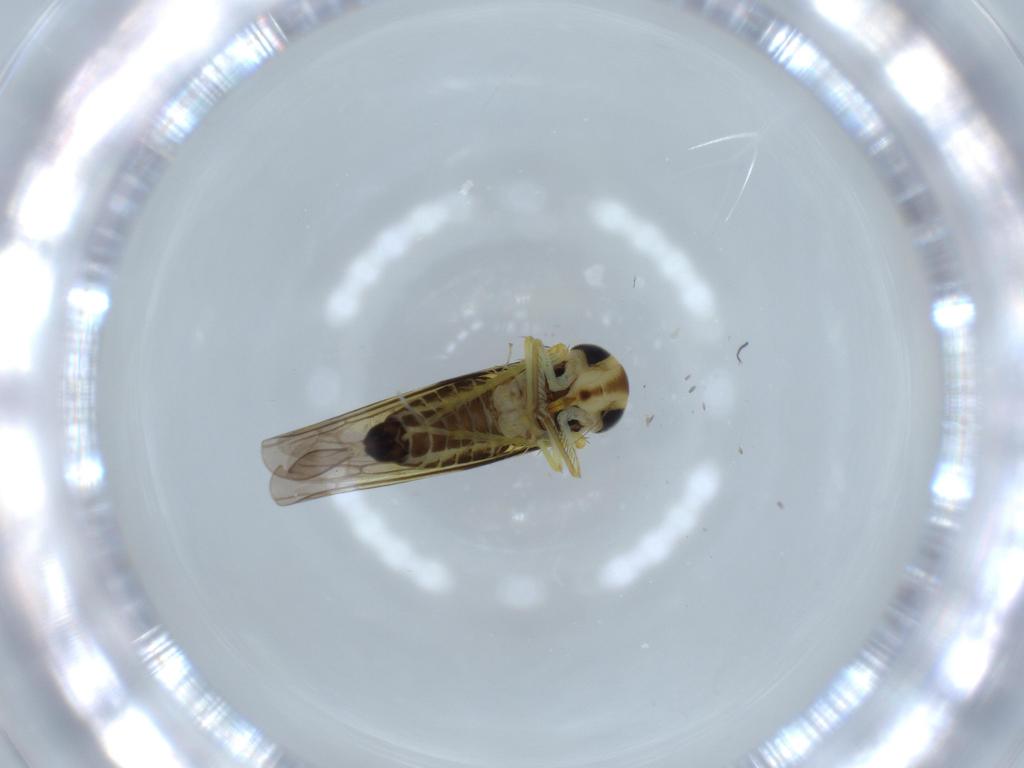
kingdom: Animalia
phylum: Arthropoda
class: Insecta
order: Hemiptera
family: Cicadellidae
